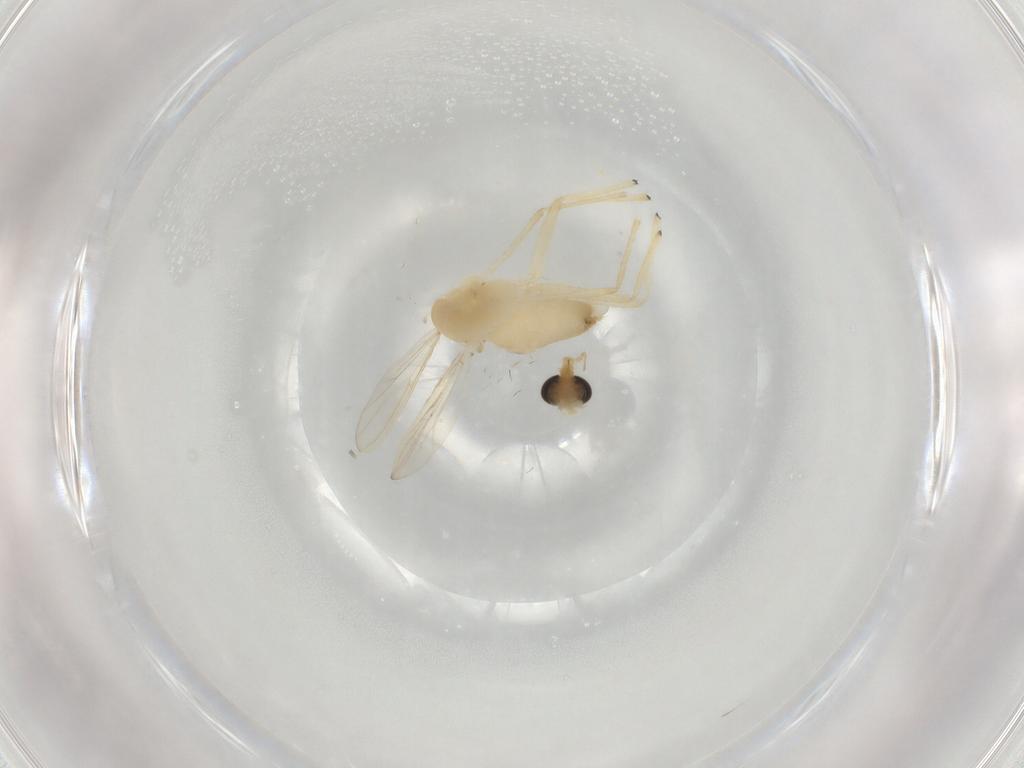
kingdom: Animalia
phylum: Arthropoda
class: Insecta
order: Diptera
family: Chironomidae
